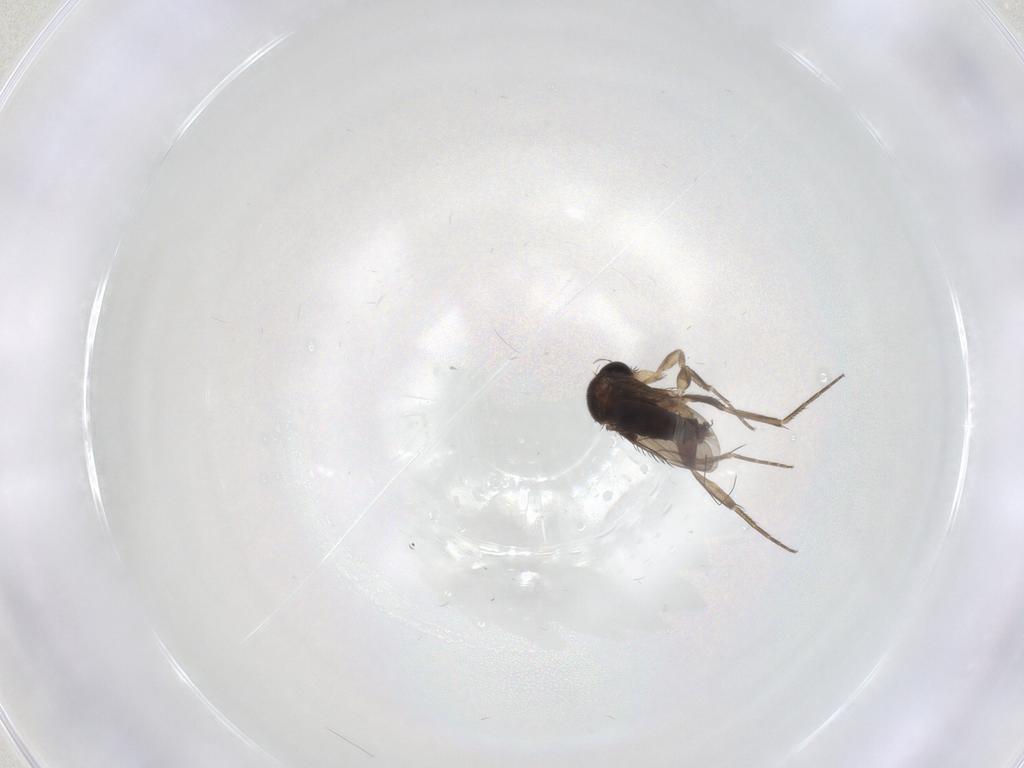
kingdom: Animalia
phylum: Arthropoda
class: Insecta
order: Diptera
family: Phoridae
